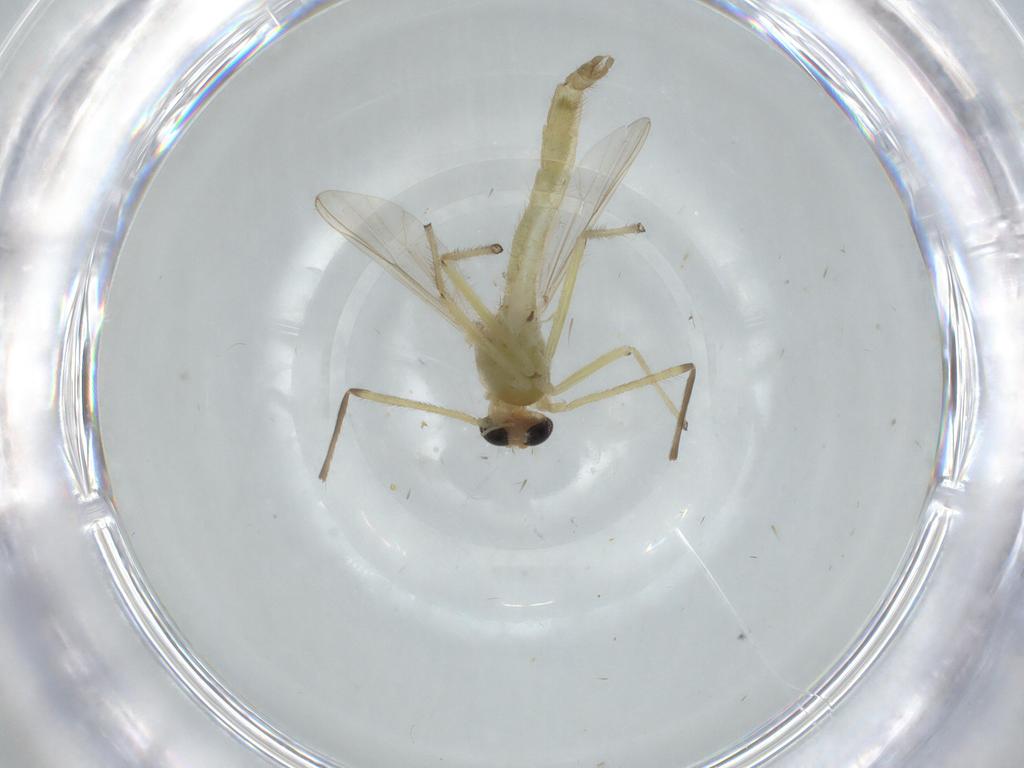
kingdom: Animalia
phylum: Arthropoda
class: Insecta
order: Diptera
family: Chironomidae
